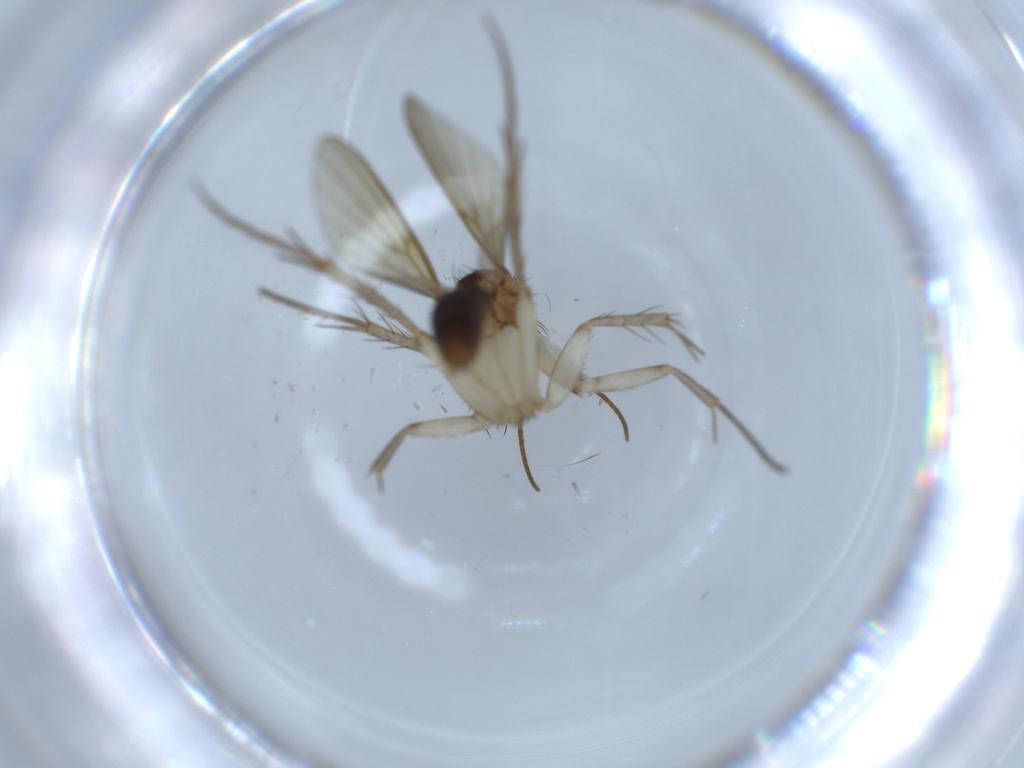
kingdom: Animalia
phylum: Arthropoda
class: Insecta
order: Diptera
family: Mycetophilidae
